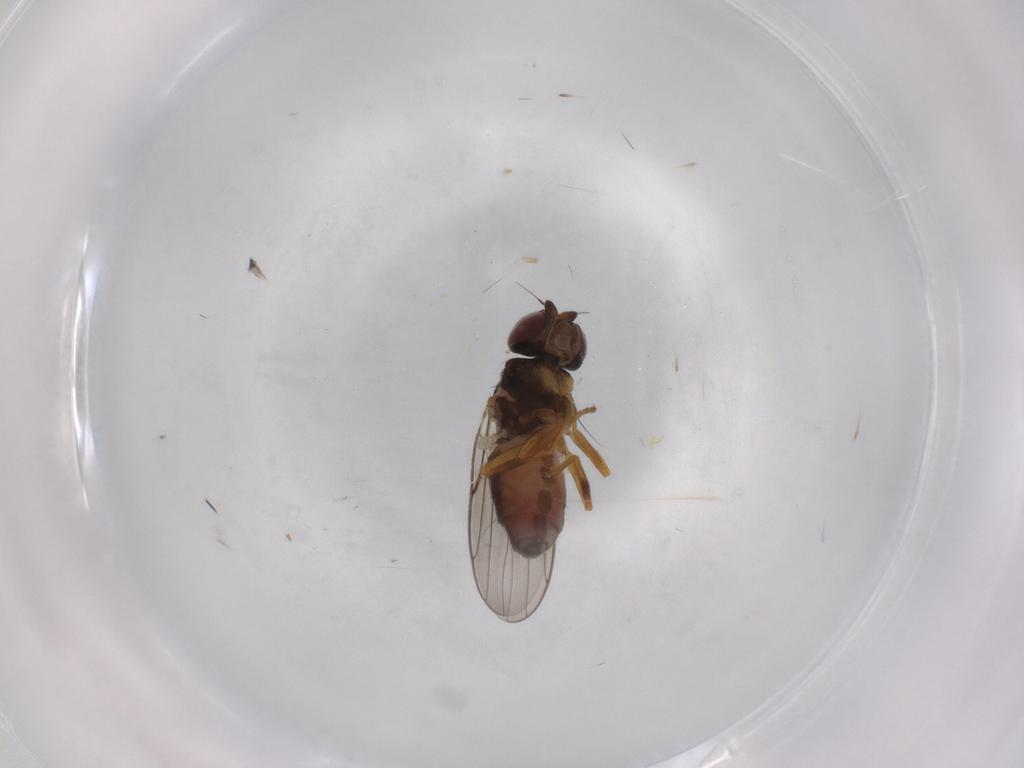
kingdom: Animalia
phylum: Arthropoda
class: Insecta
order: Diptera
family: Chloropidae
